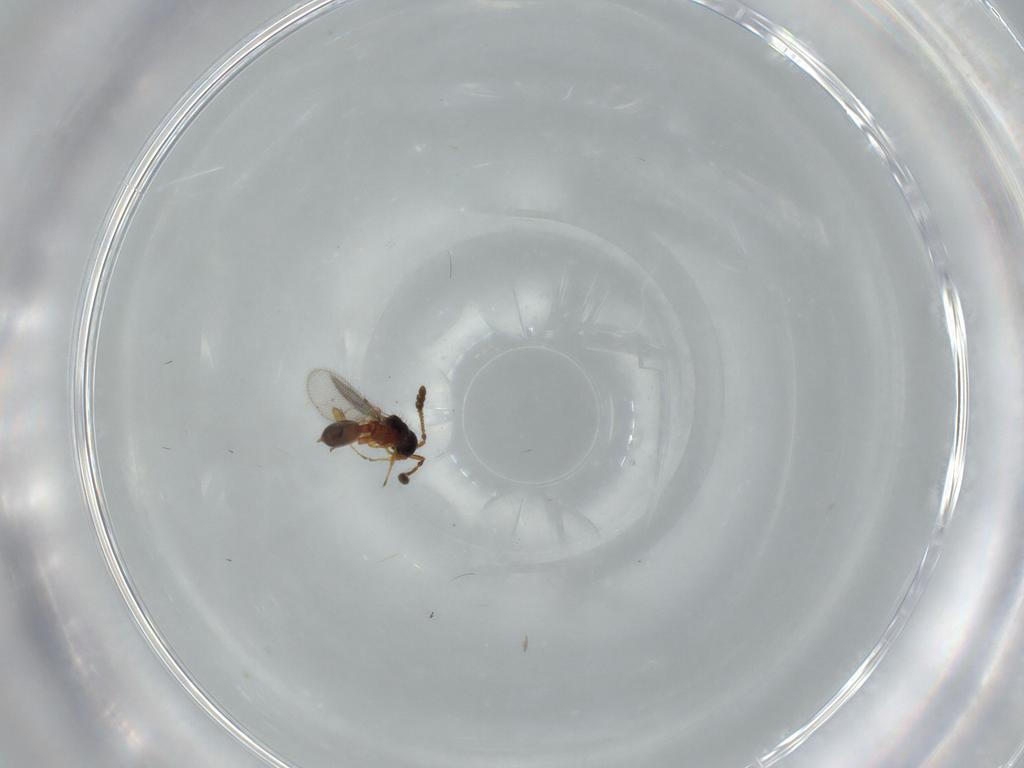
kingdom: Animalia
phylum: Arthropoda
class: Insecta
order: Hymenoptera
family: Diapriidae
